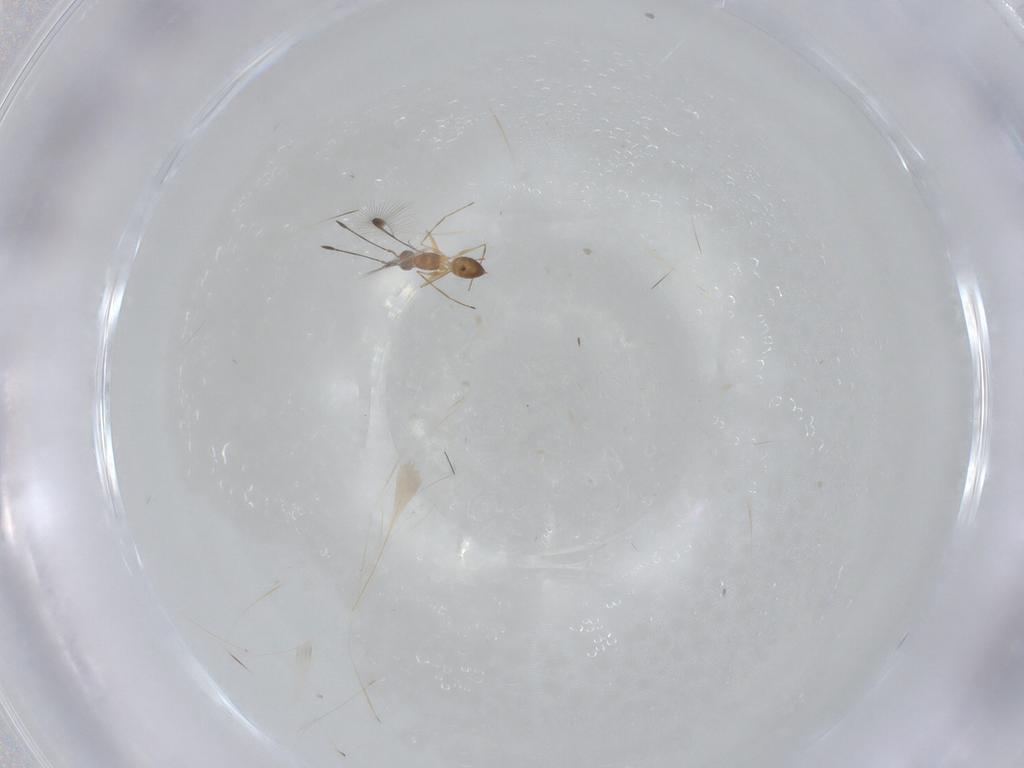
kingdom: Animalia
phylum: Arthropoda
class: Insecta
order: Hymenoptera
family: Mymaridae
